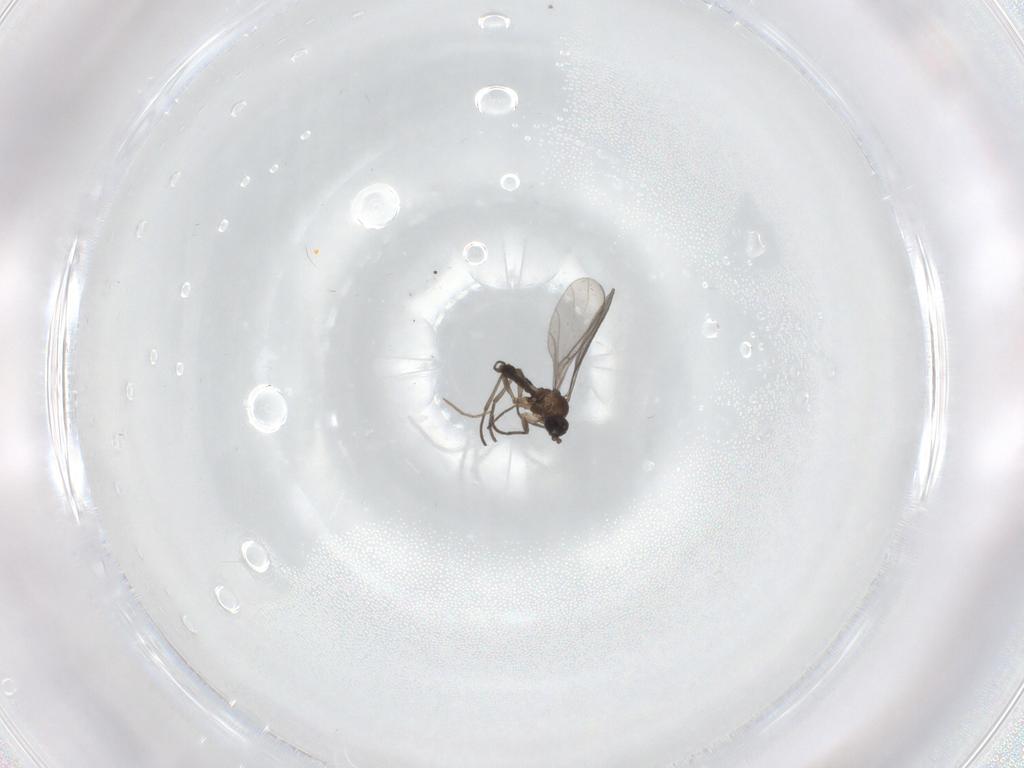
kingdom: Animalia
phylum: Arthropoda
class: Insecta
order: Diptera
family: Sciaridae
